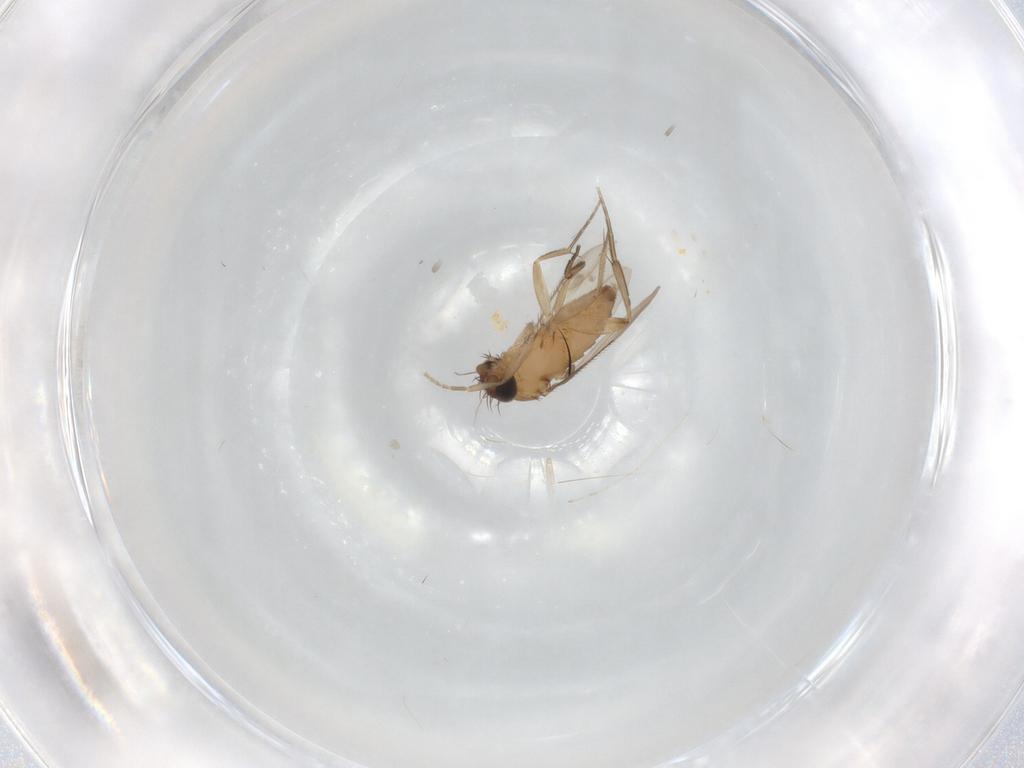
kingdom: Animalia
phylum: Arthropoda
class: Insecta
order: Diptera
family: Phoridae
